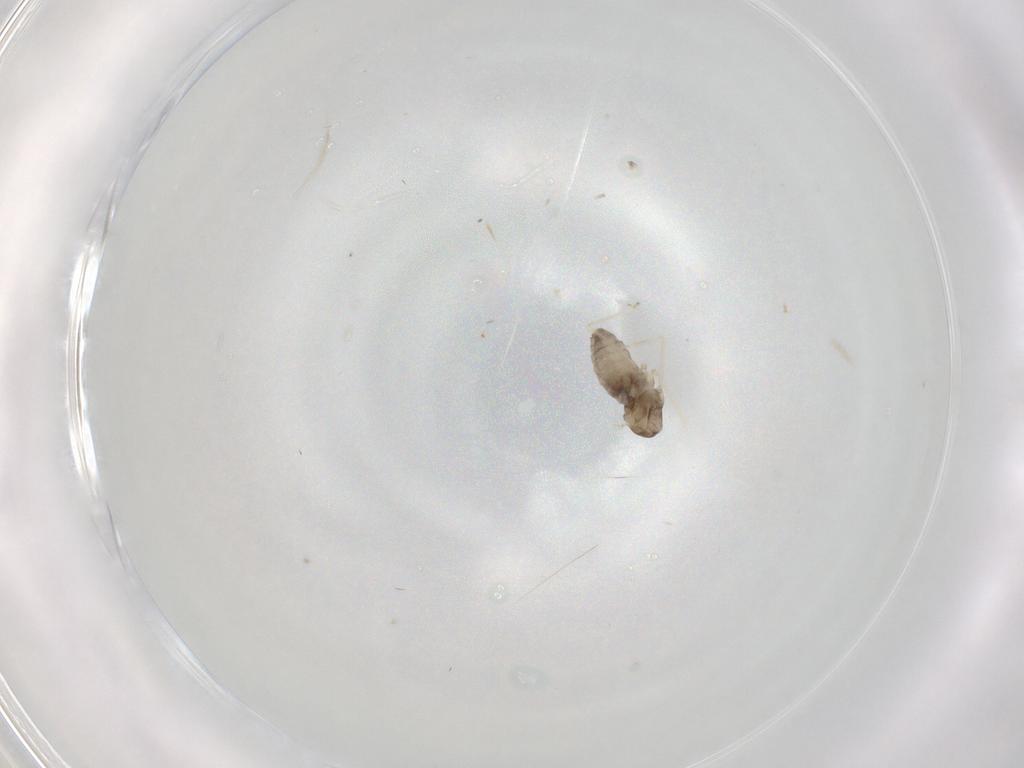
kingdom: Animalia
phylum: Arthropoda
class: Insecta
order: Diptera
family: Cecidomyiidae
